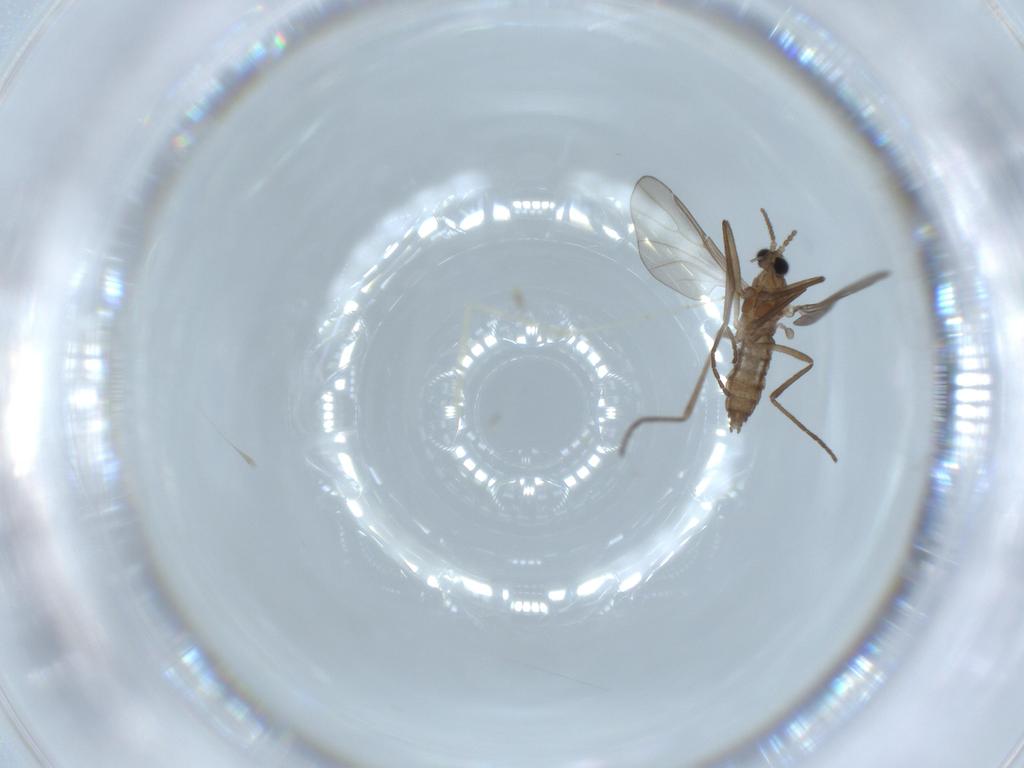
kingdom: Animalia
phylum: Arthropoda
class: Insecta
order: Diptera
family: Cecidomyiidae
